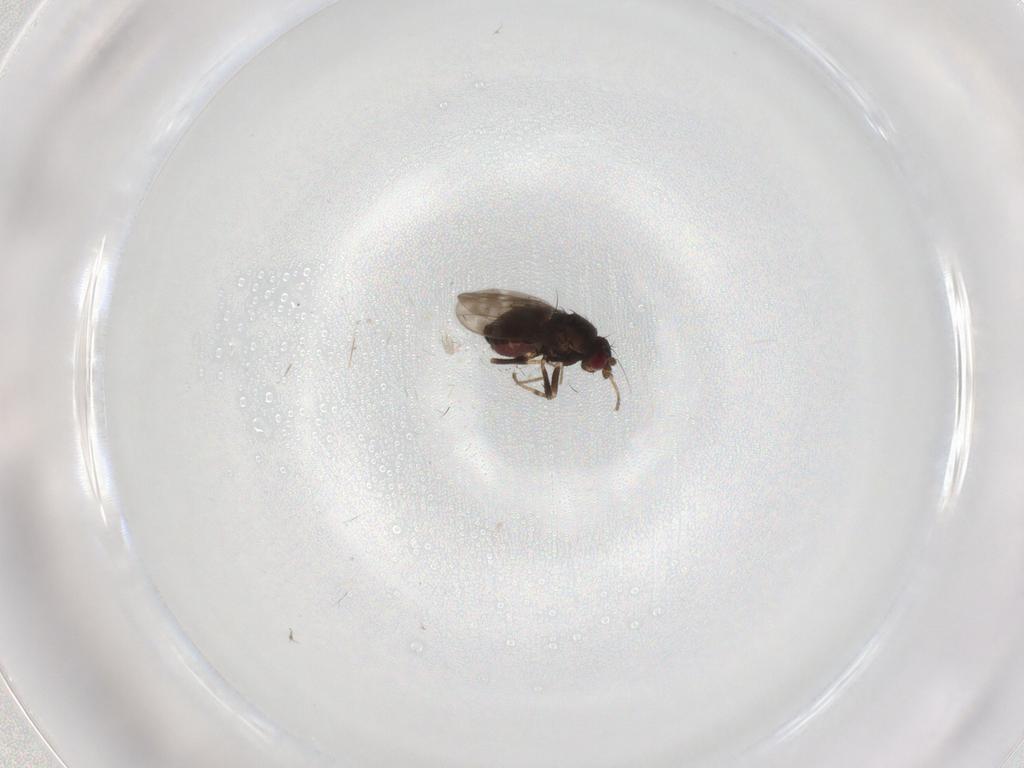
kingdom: Animalia
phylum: Arthropoda
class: Insecta
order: Diptera
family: Sphaeroceridae
